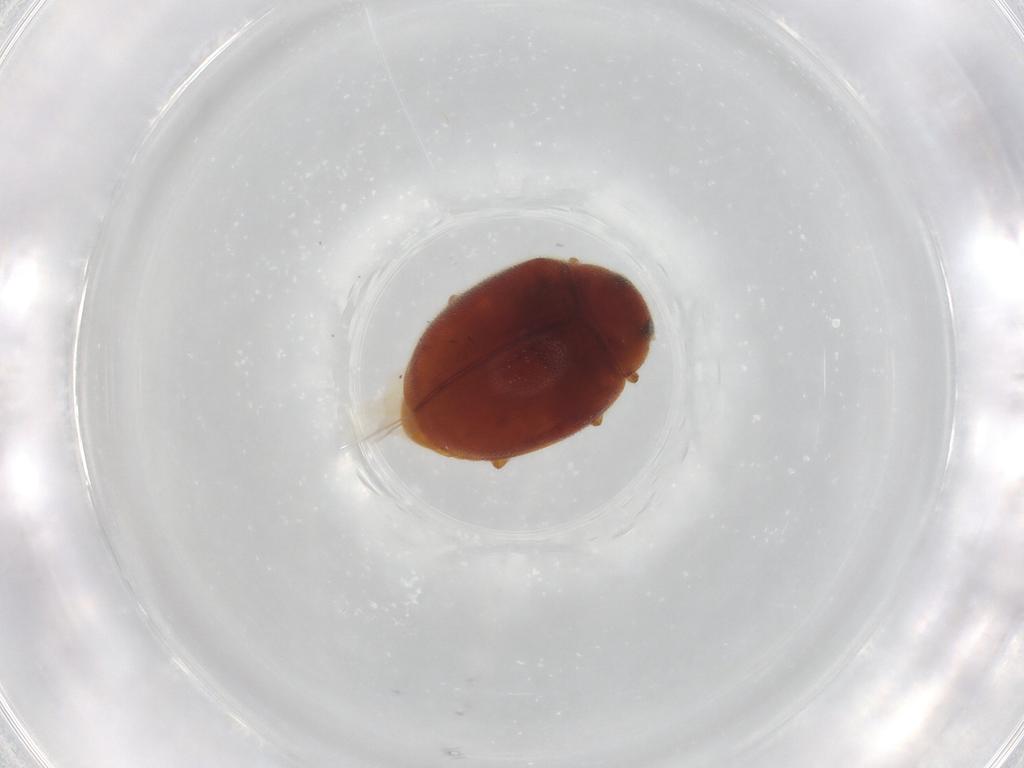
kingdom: Animalia
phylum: Arthropoda
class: Insecta
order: Coleoptera
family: Coccinellidae
